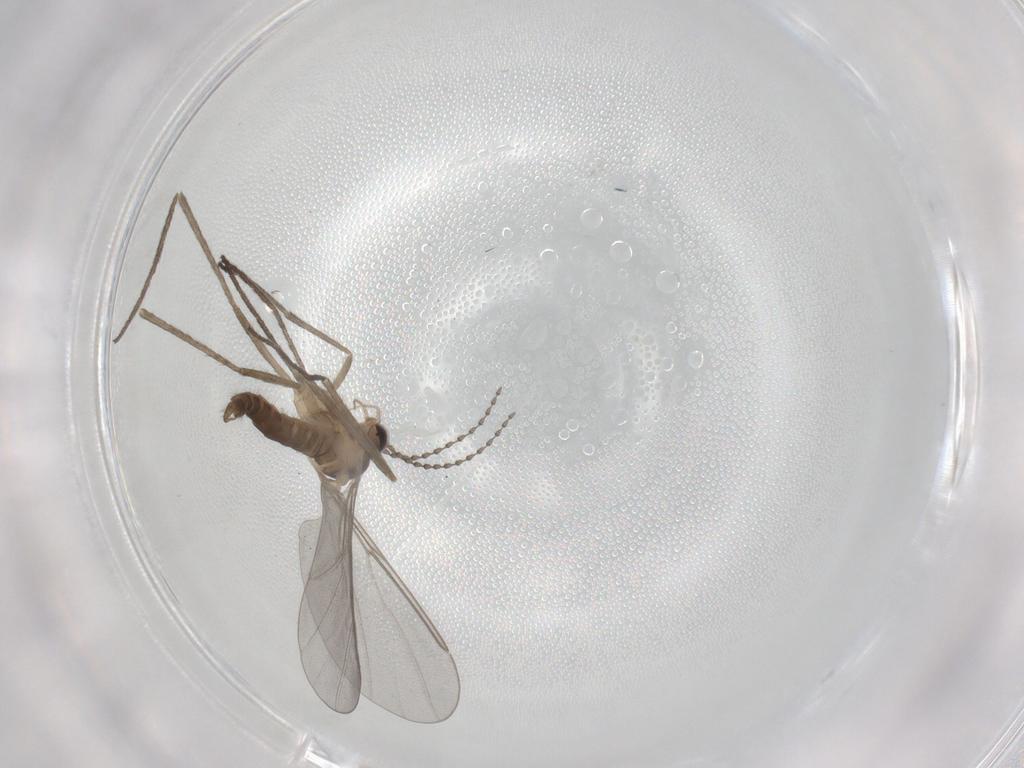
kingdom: Animalia
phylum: Arthropoda
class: Insecta
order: Diptera
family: Cecidomyiidae
